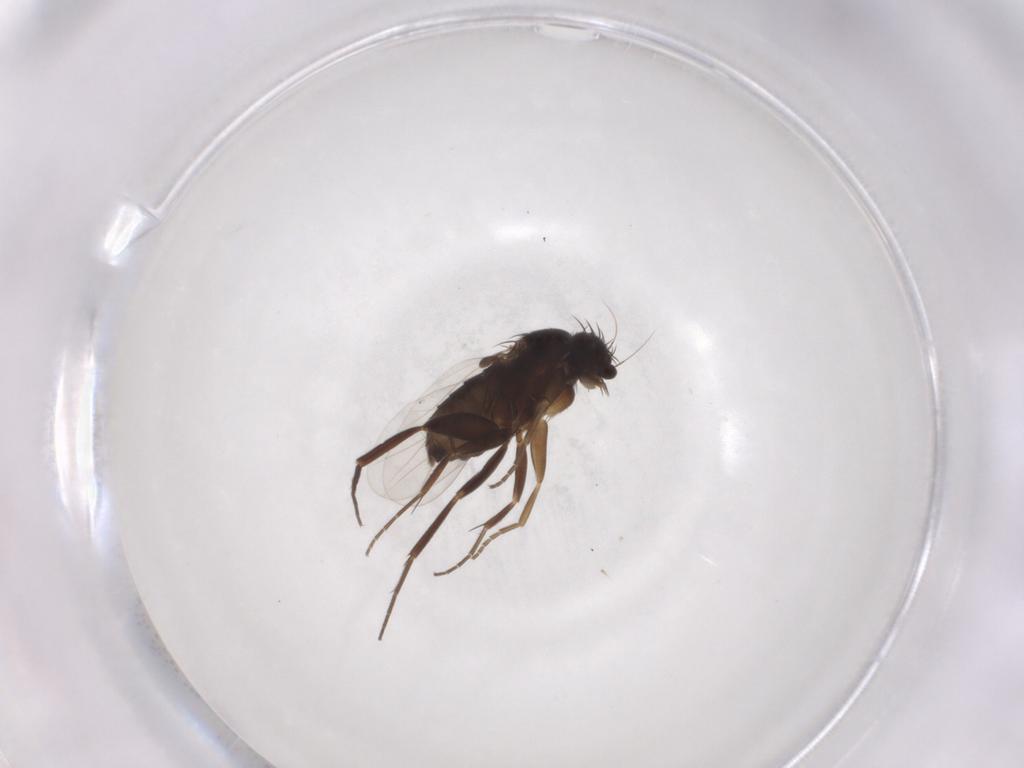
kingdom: Animalia
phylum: Arthropoda
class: Insecta
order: Diptera
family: Phoridae
